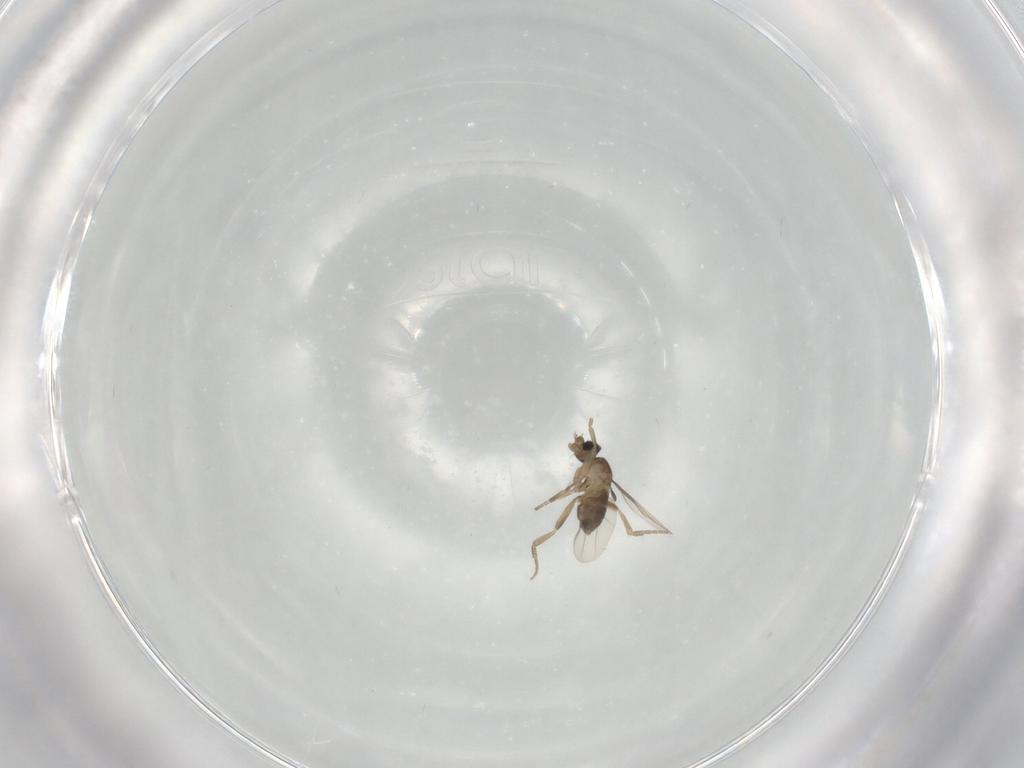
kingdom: Animalia
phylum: Arthropoda
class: Insecta
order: Diptera
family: Phoridae
